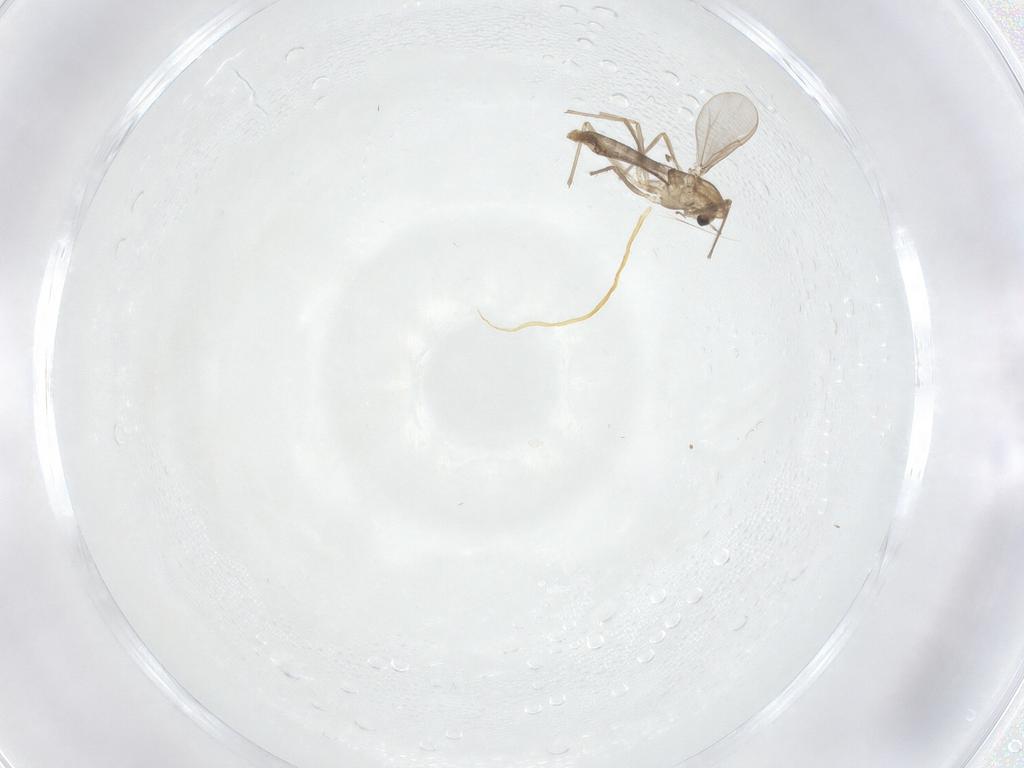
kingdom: Animalia
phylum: Arthropoda
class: Insecta
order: Diptera
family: Chironomidae
